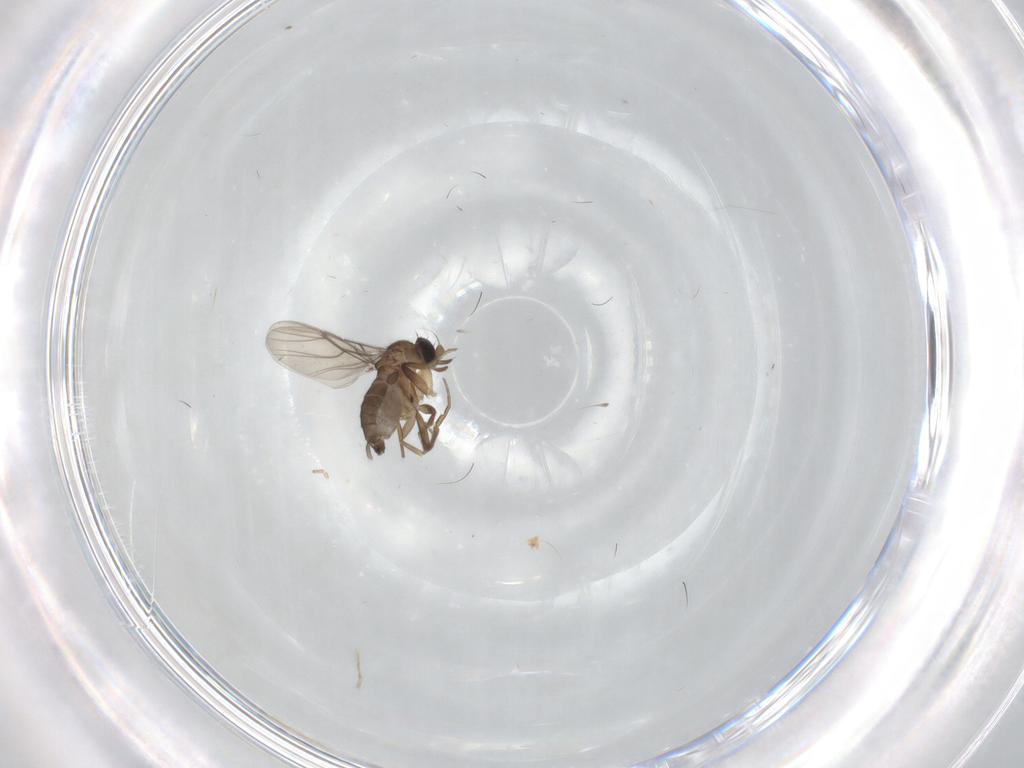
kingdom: Animalia
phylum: Arthropoda
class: Insecta
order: Diptera
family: Phoridae
